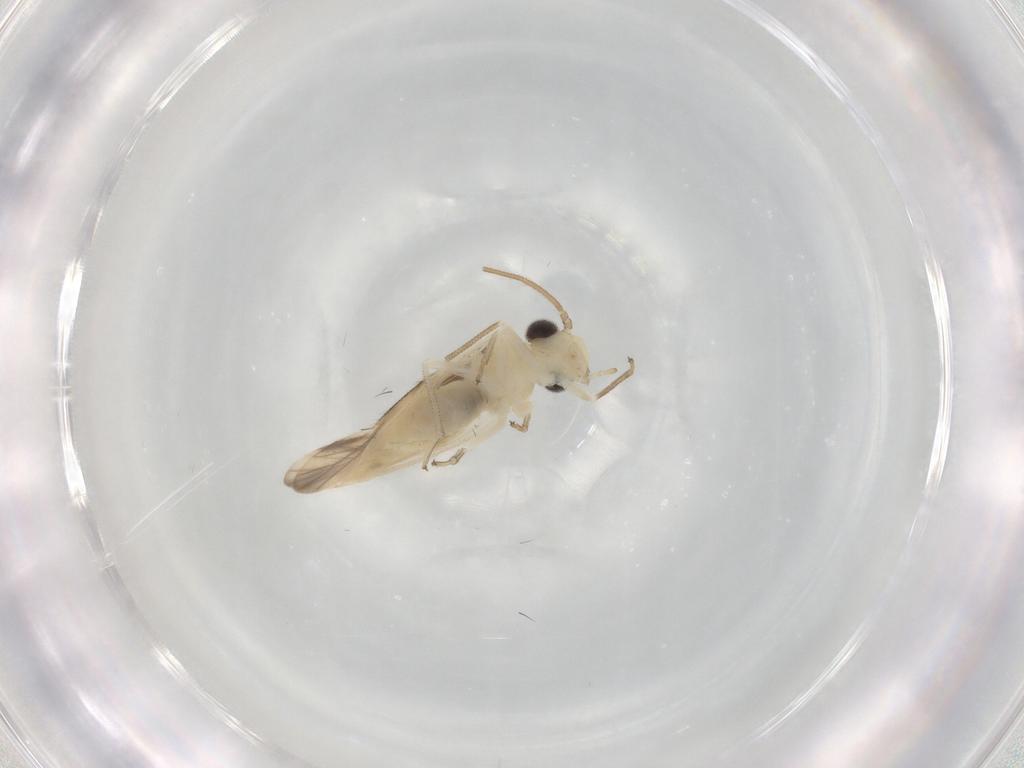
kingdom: Animalia
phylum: Arthropoda
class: Insecta
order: Psocodea
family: Caeciliusidae
